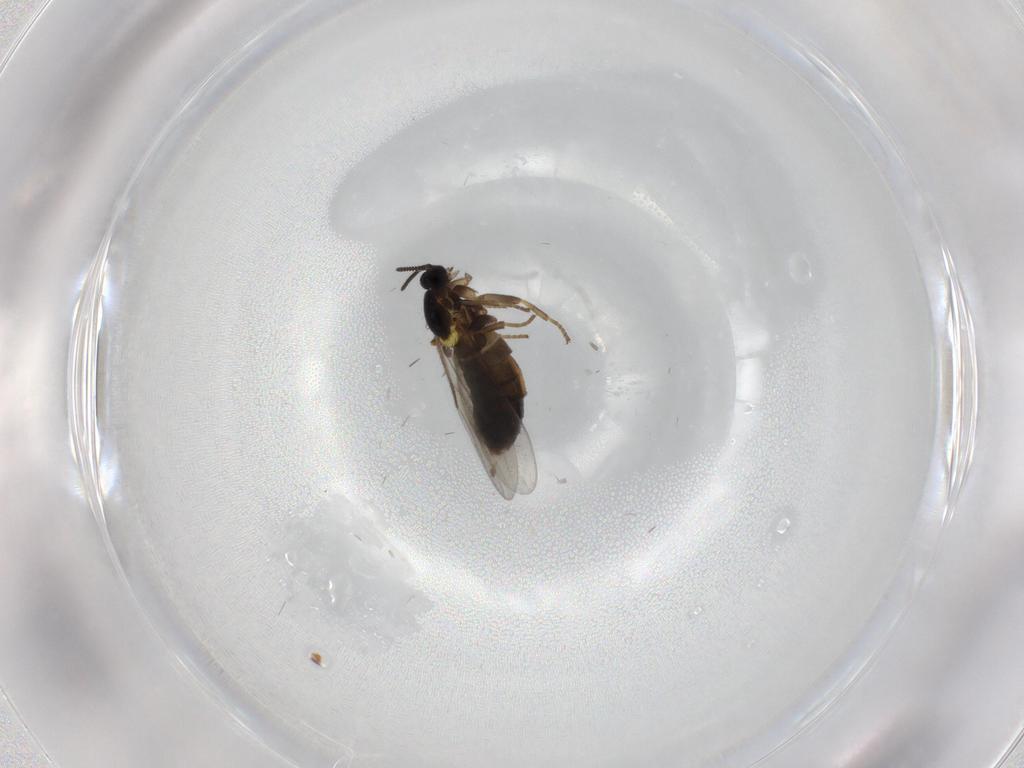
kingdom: Animalia
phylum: Arthropoda
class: Insecta
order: Diptera
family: Scatopsidae
